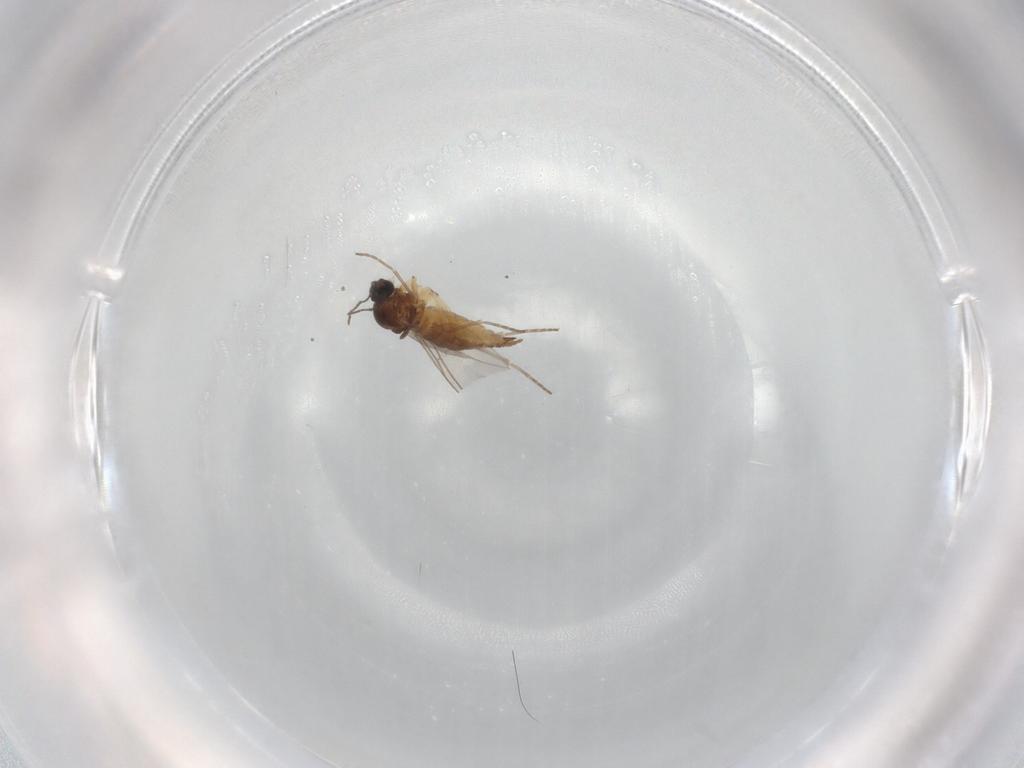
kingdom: Animalia
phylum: Arthropoda
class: Insecta
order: Diptera
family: Sciaridae
